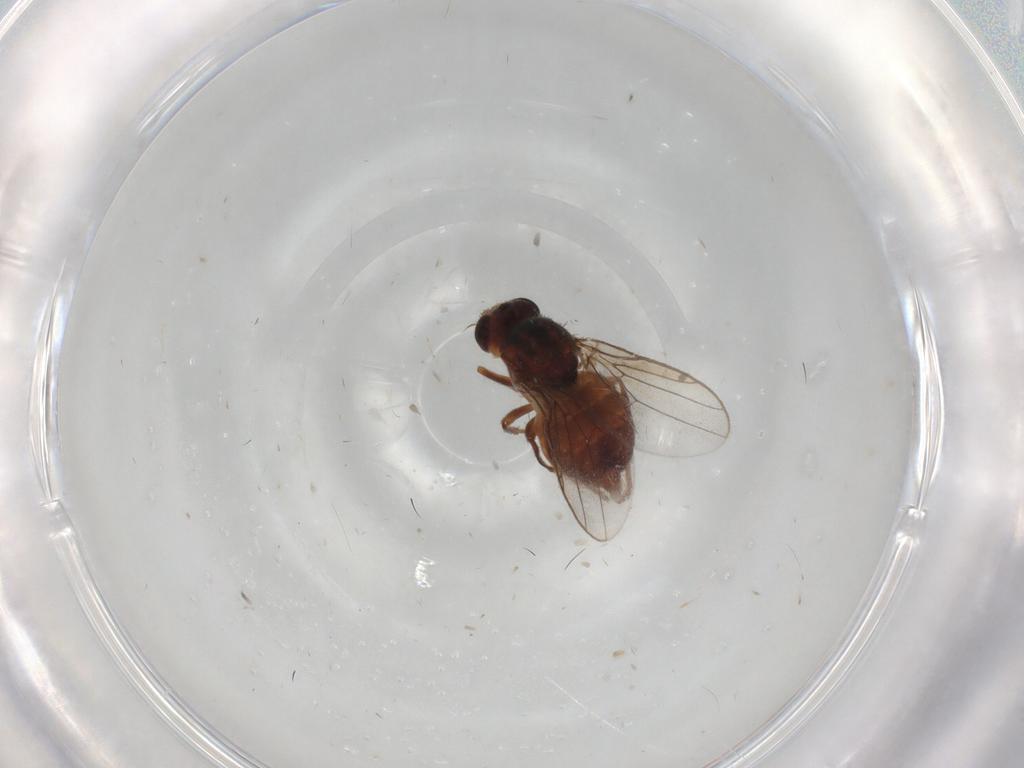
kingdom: Animalia
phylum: Arthropoda
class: Insecta
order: Diptera
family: Chloropidae
